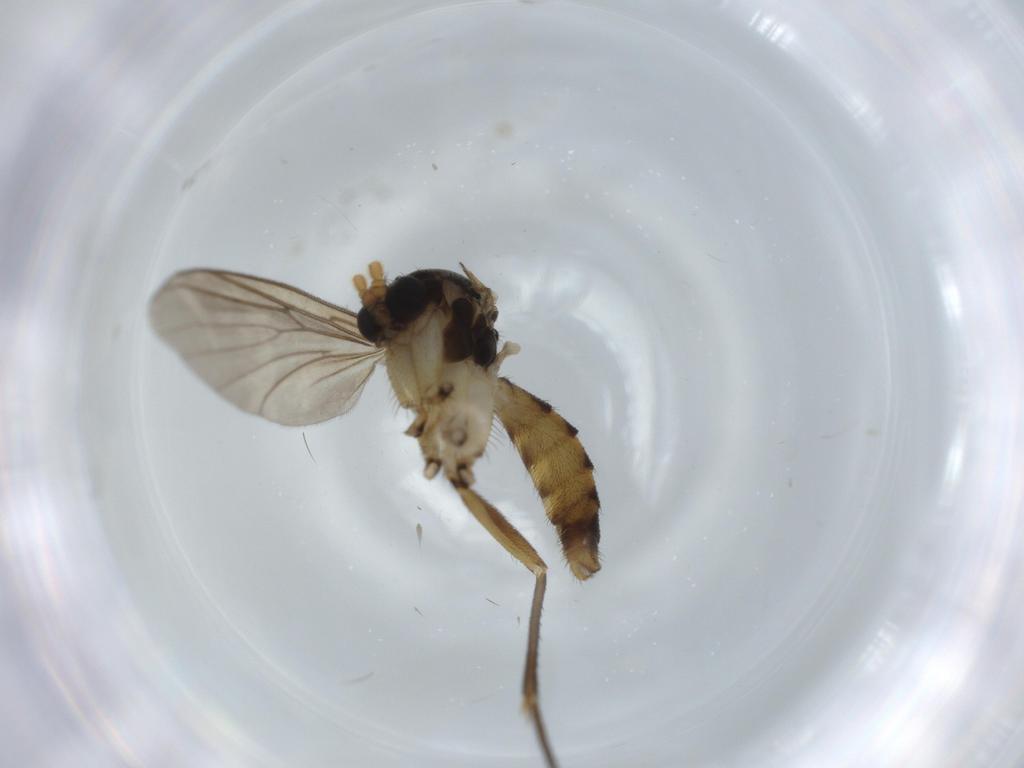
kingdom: Animalia
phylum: Arthropoda
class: Insecta
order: Diptera
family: Dolichopodidae
